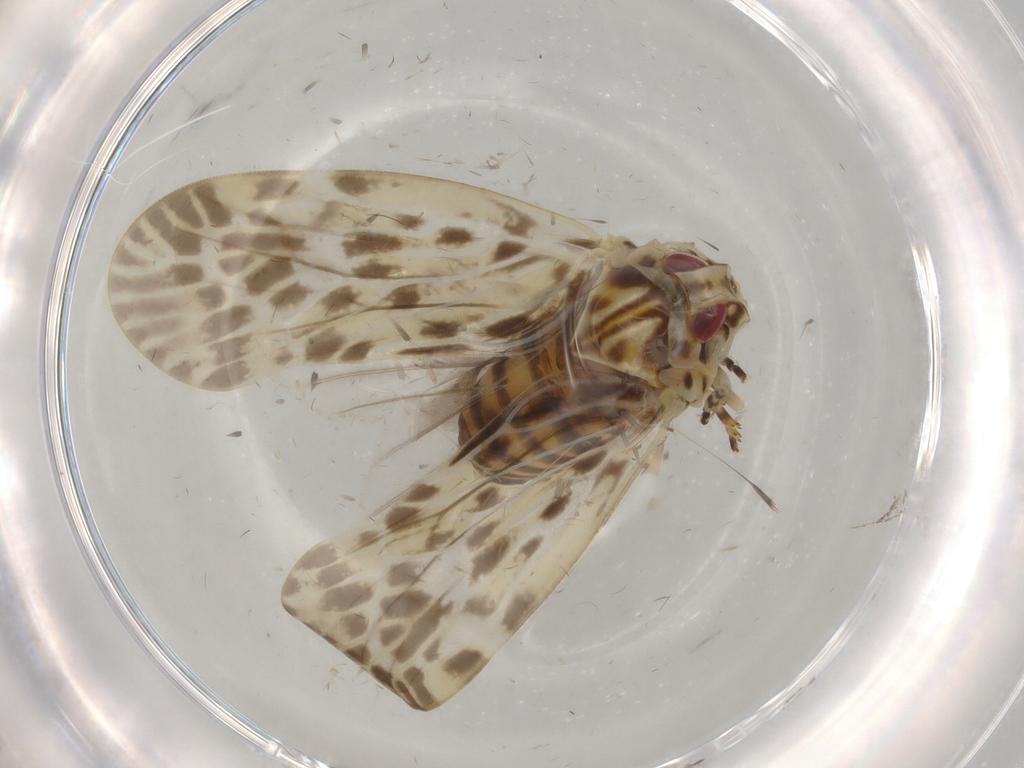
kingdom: Animalia
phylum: Arthropoda
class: Insecta
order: Hemiptera
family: Derbidae
